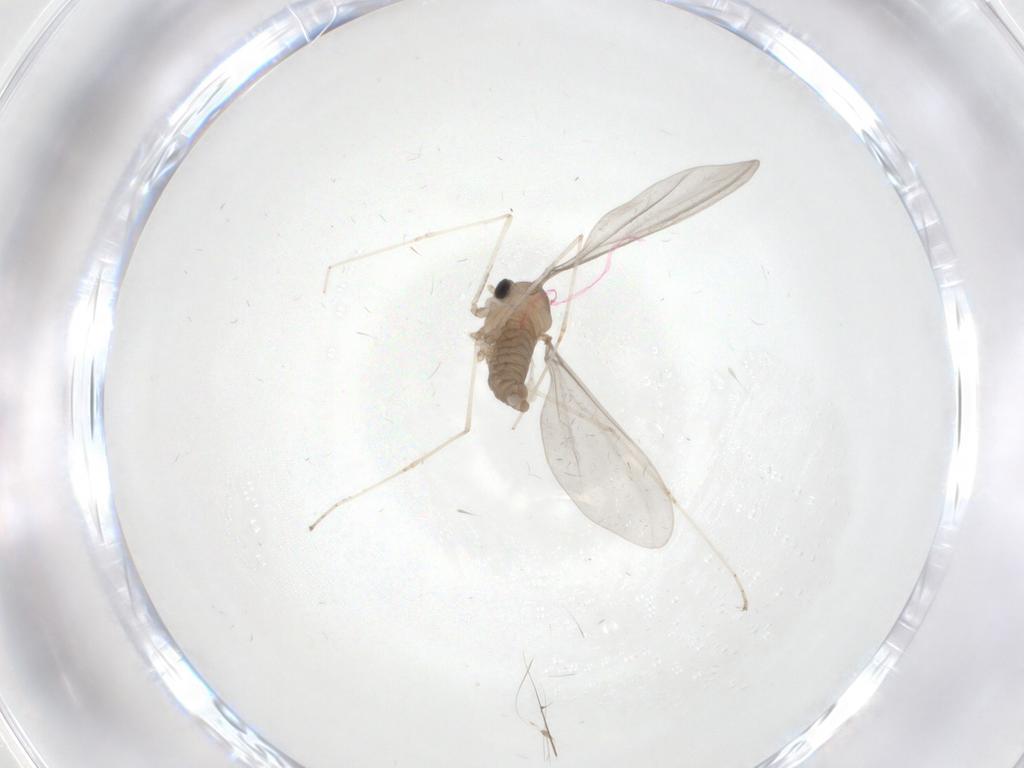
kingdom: Animalia
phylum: Arthropoda
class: Insecta
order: Diptera
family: Cecidomyiidae
